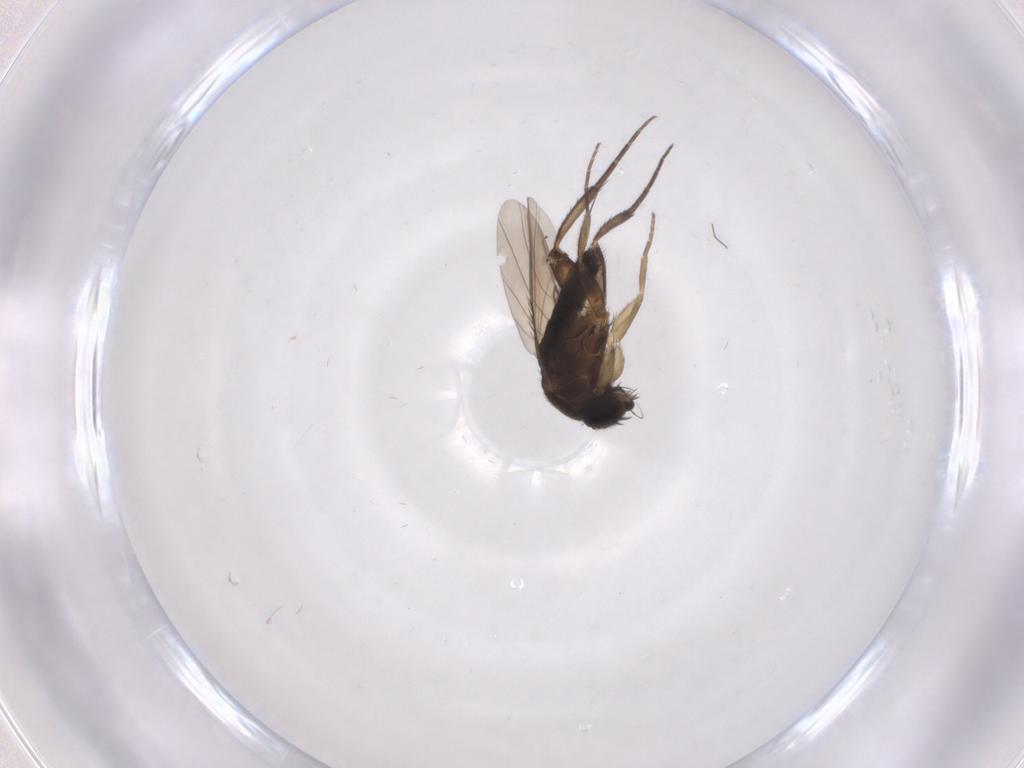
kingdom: Animalia
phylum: Arthropoda
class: Insecta
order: Diptera
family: Phoridae
